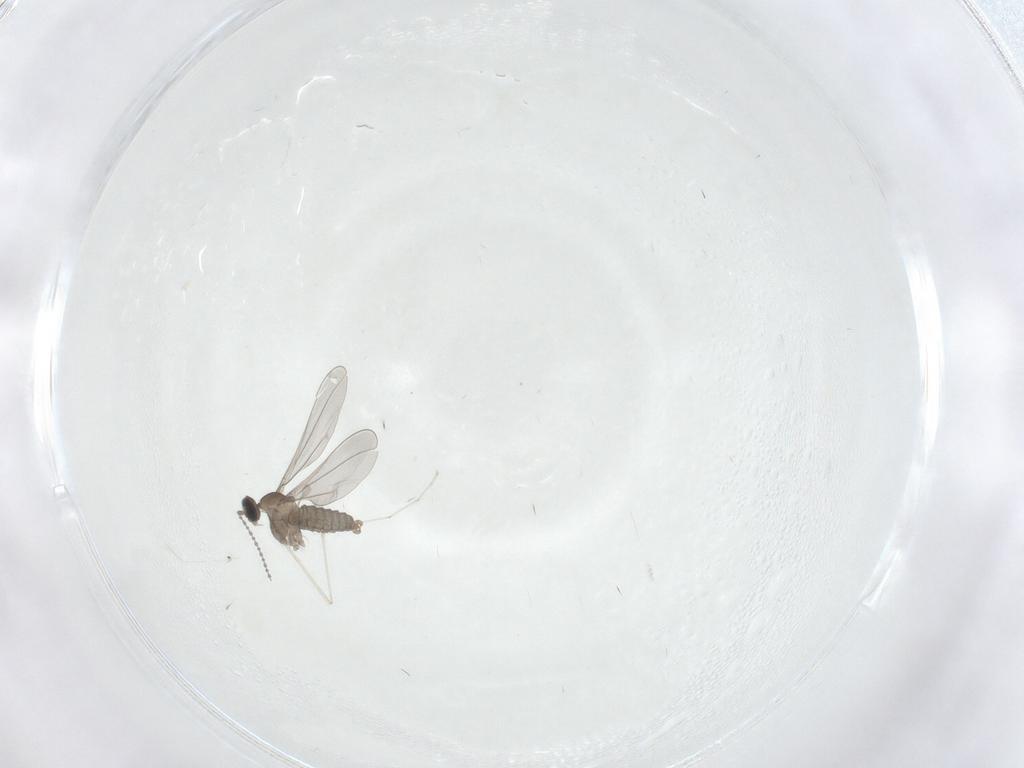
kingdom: Animalia
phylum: Arthropoda
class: Insecta
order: Diptera
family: Cecidomyiidae
